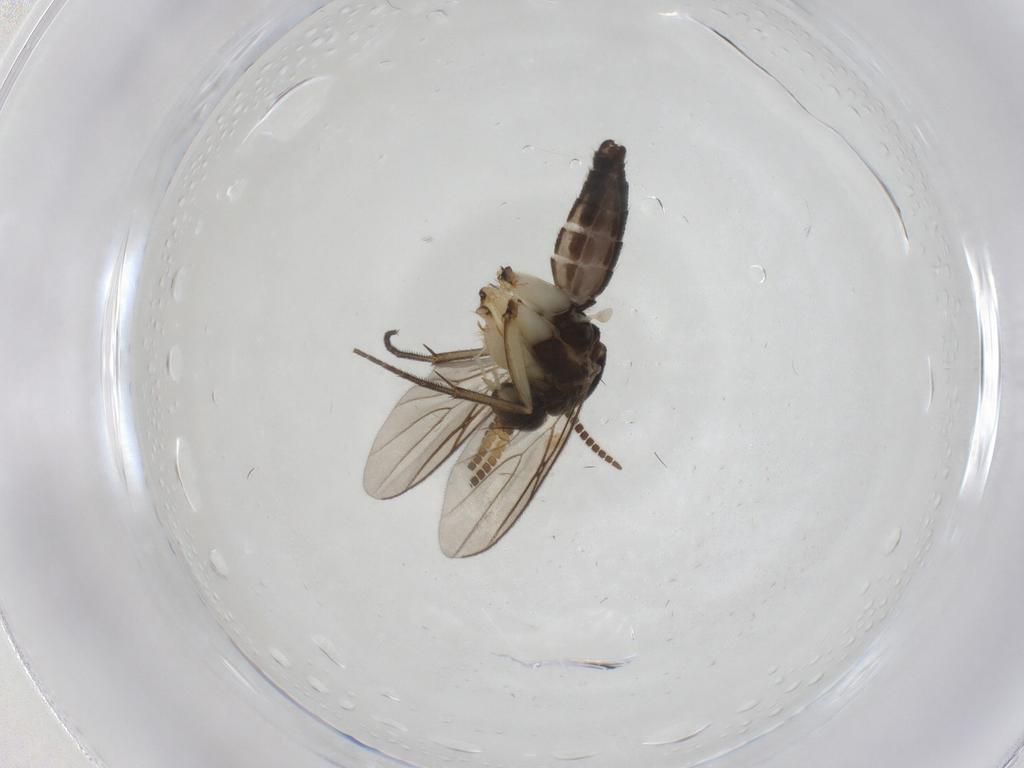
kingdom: Animalia
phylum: Arthropoda
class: Insecta
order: Diptera
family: Mycetophilidae
